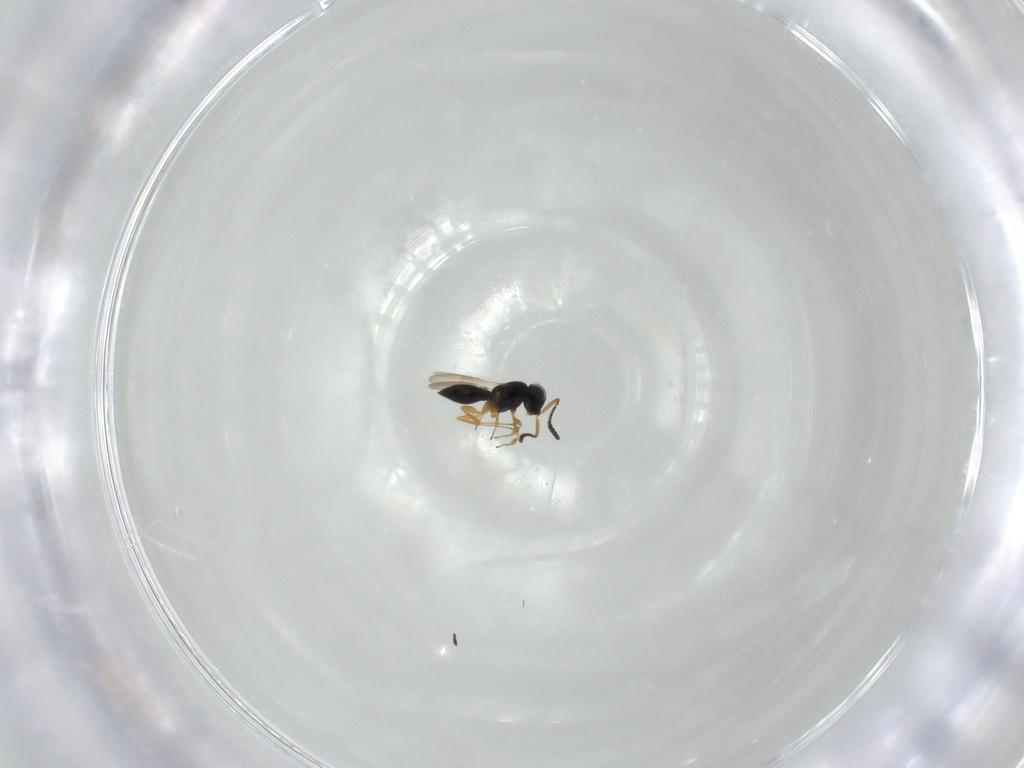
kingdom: Animalia
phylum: Arthropoda
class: Insecta
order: Hymenoptera
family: Scelionidae
